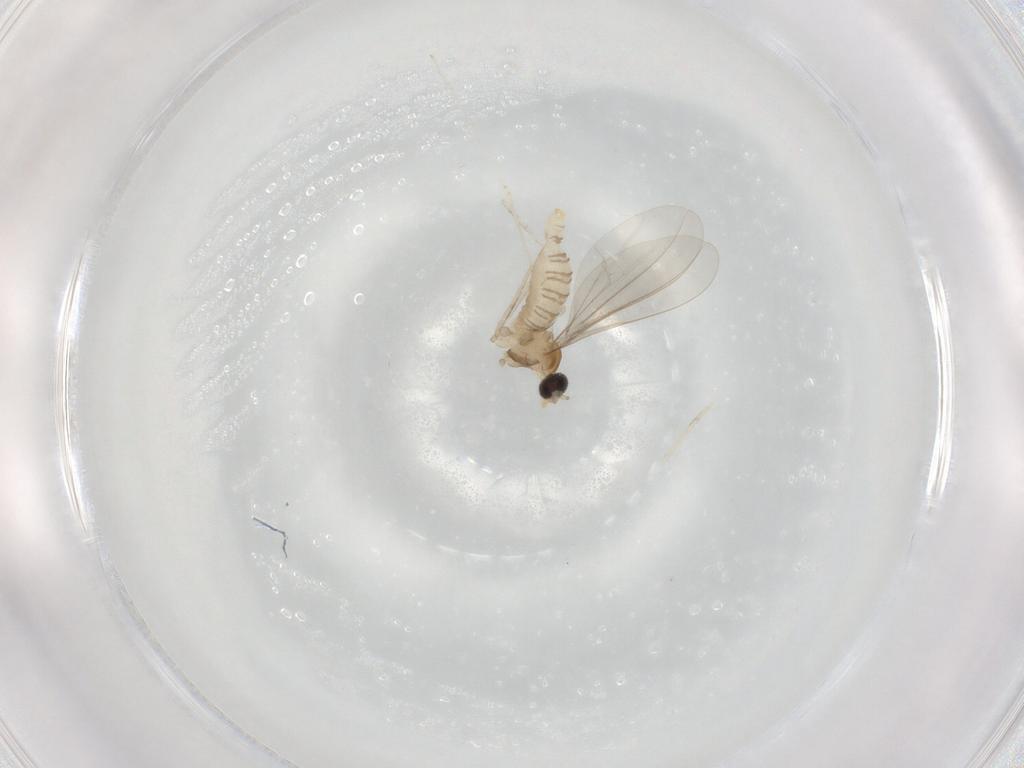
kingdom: Animalia
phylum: Arthropoda
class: Insecta
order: Diptera
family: Cecidomyiidae
